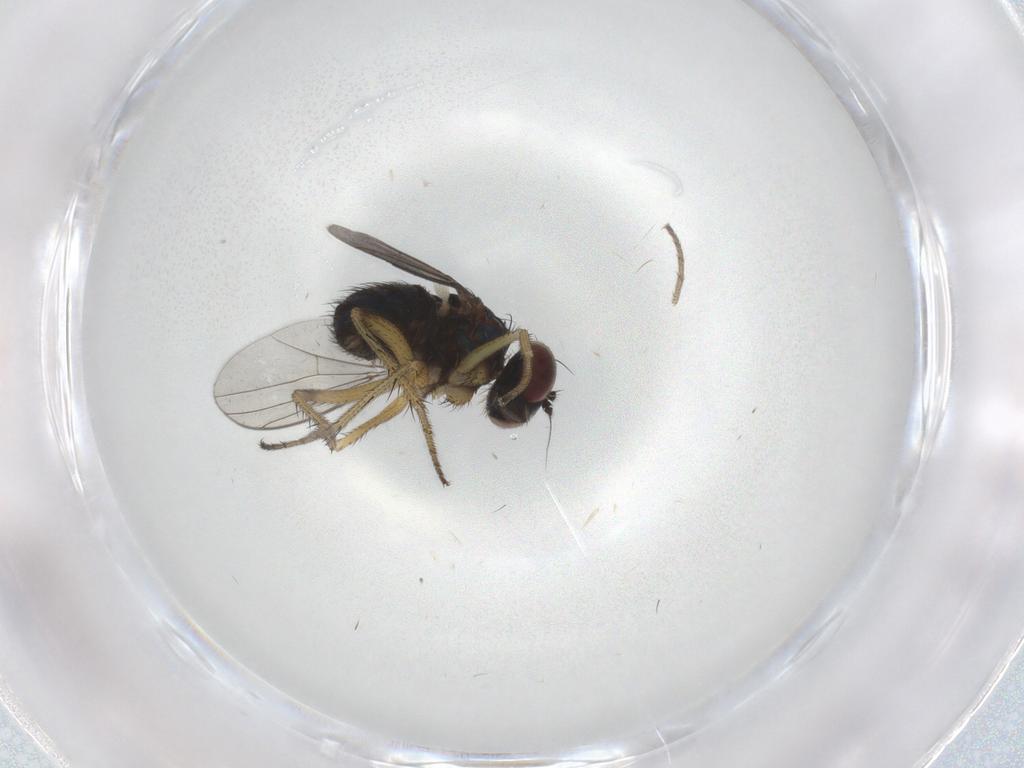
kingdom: Animalia
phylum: Arthropoda
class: Insecta
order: Diptera
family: Dolichopodidae
